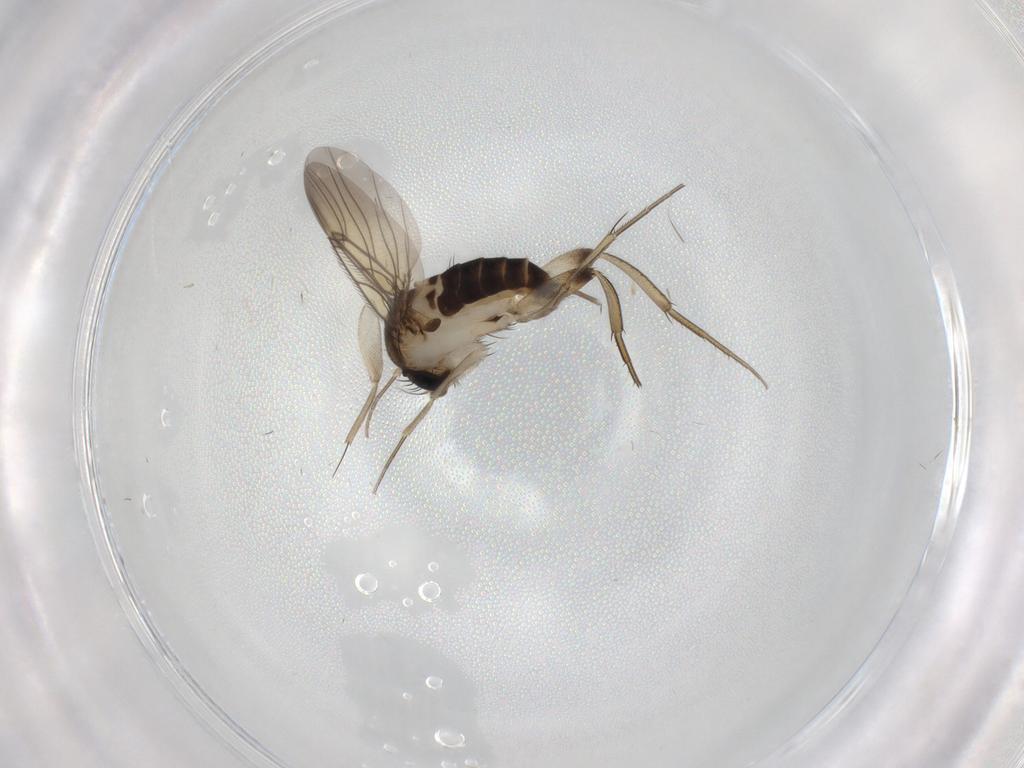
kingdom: Animalia
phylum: Arthropoda
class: Insecta
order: Diptera
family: Phoridae
